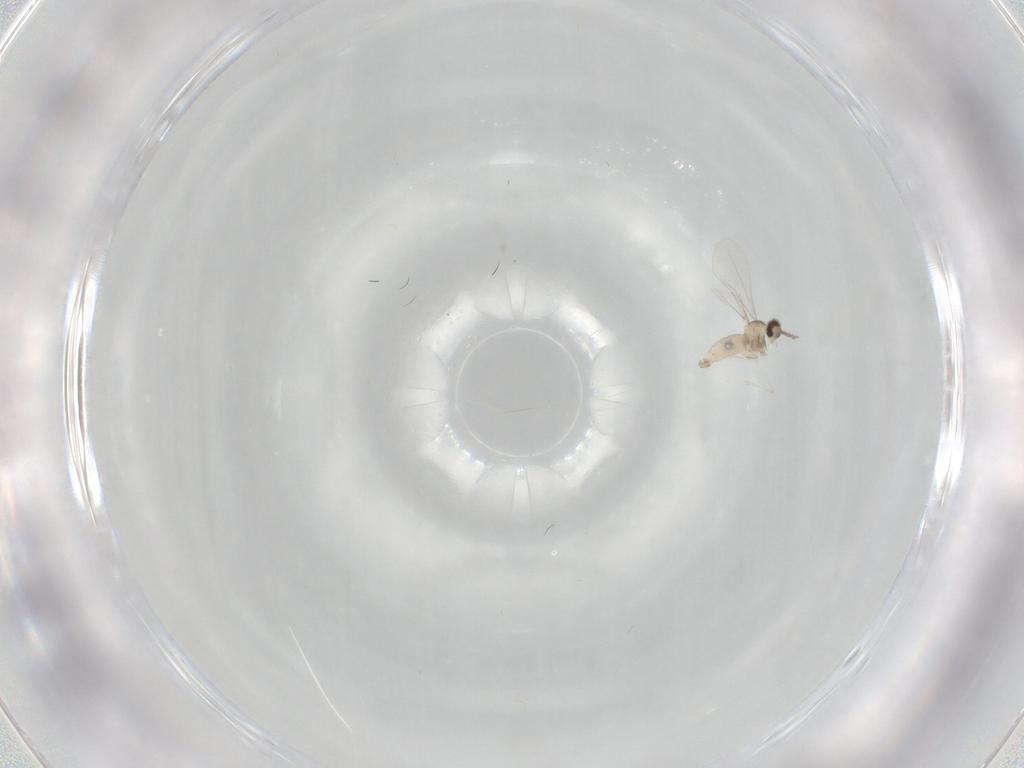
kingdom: Animalia
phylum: Arthropoda
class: Insecta
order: Diptera
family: Cecidomyiidae
